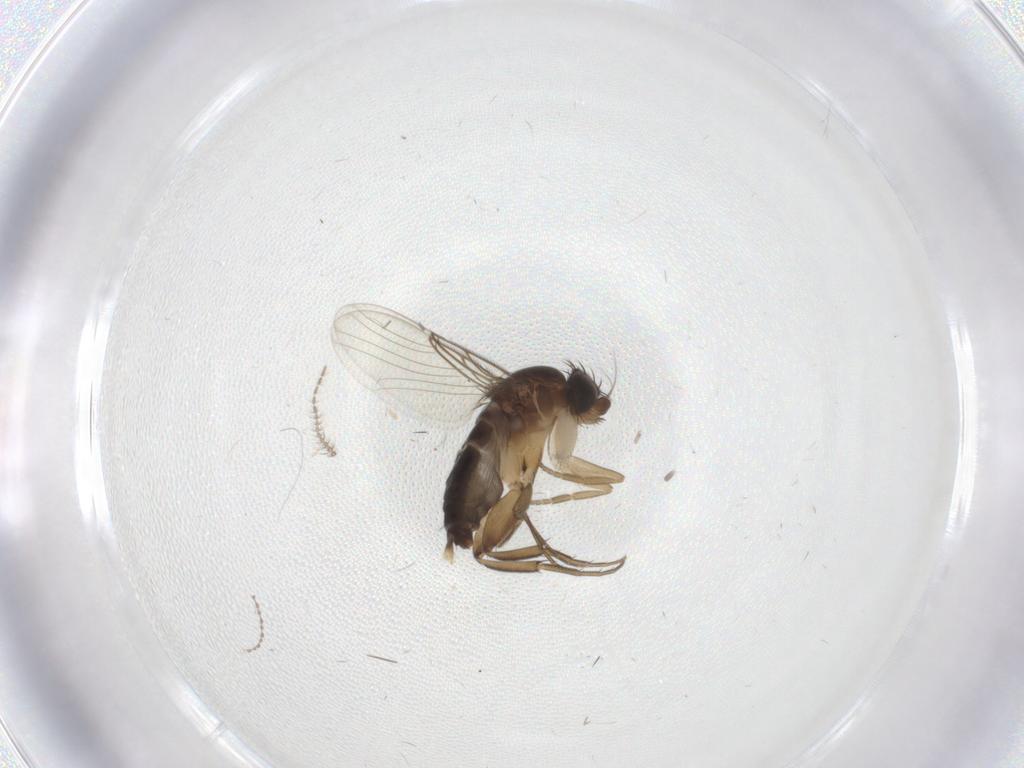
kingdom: Animalia
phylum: Arthropoda
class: Insecta
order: Diptera
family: Phoridae
